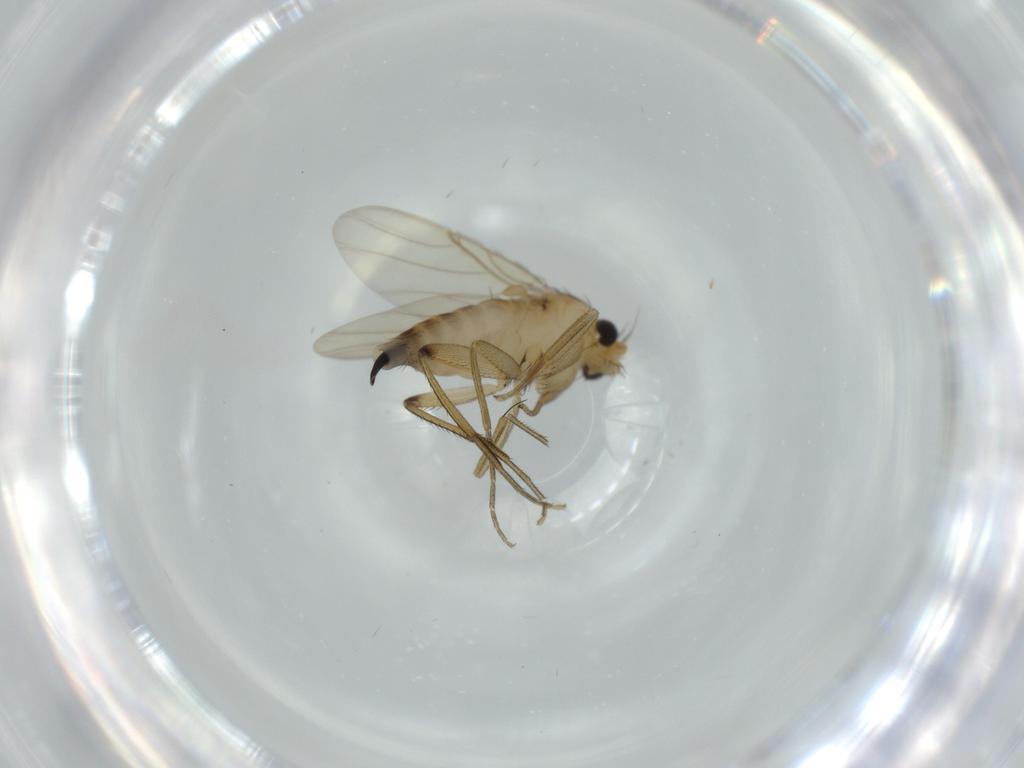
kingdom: Animalia
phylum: Arthropoda
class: Insecta
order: Diptera
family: Phoridae
